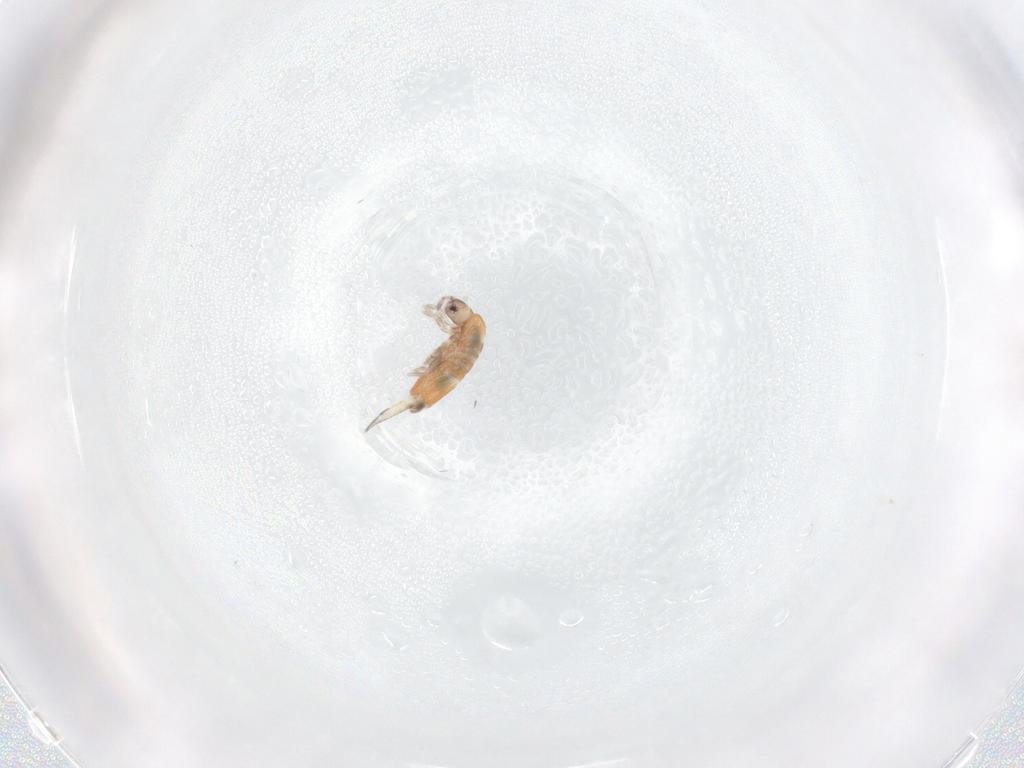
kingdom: Animalia
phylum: Arthropoda
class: Collembola
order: Entomobryomorpha
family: Entomobryidae
